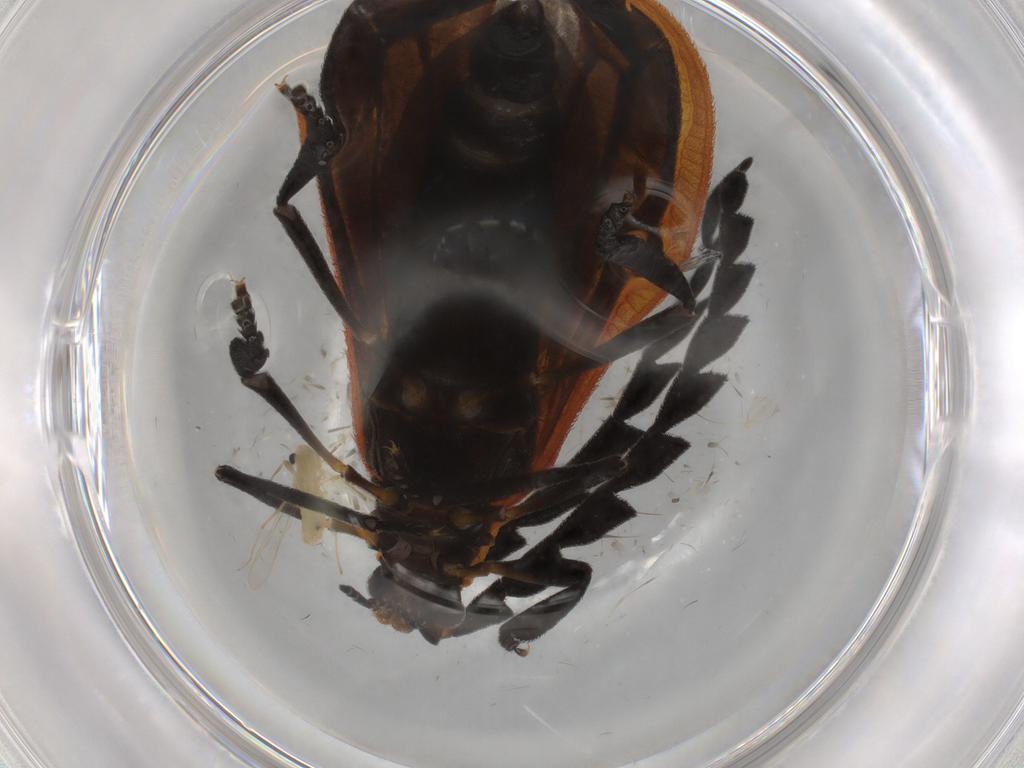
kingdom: Animalia
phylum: Arthropoda
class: Insecta
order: Coleoptera
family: Lycidae
